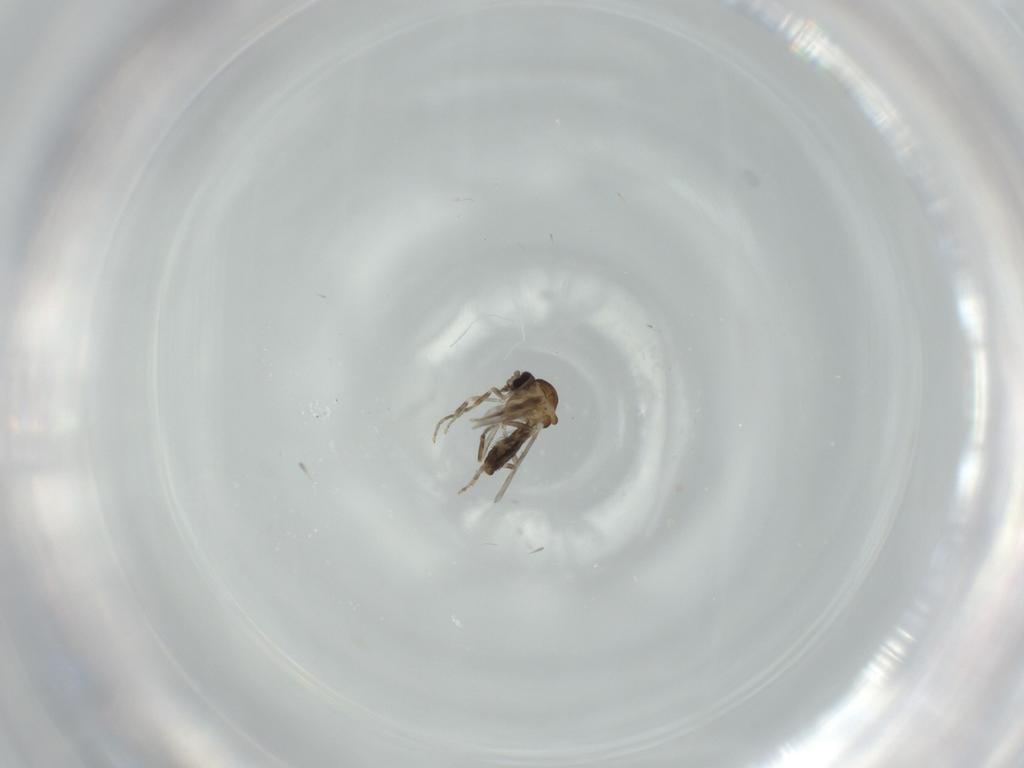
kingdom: Animalia
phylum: Arthropoda
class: Insecta
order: Diptera
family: Ceratopogonidae
